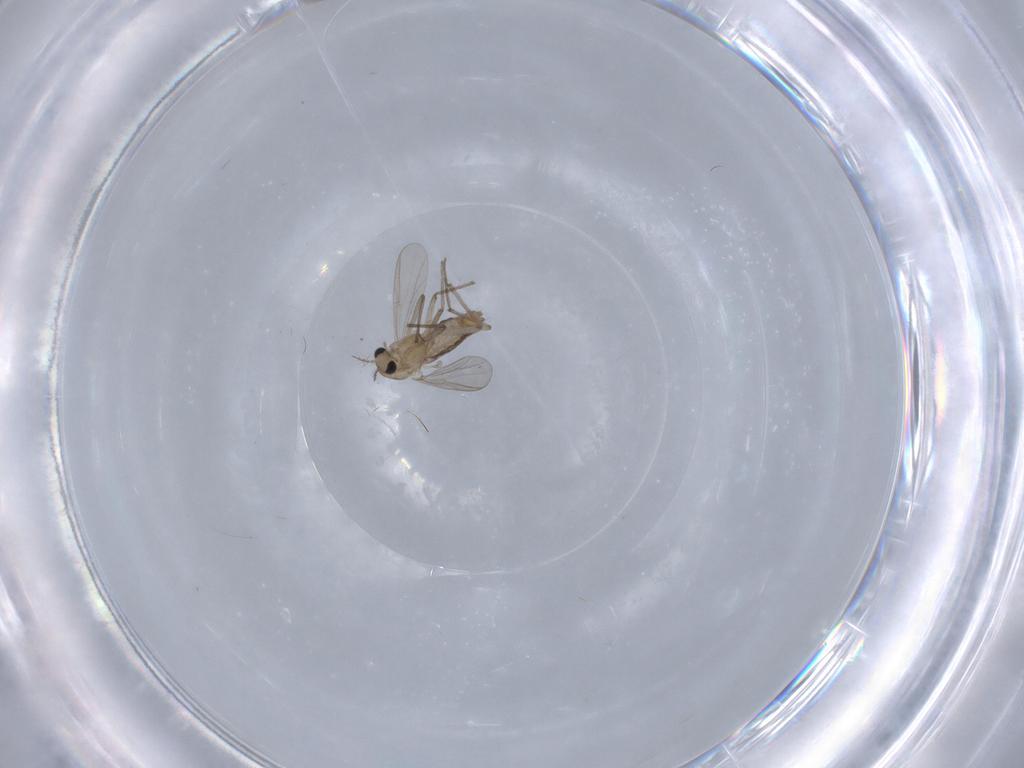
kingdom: Animalia
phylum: Arthropoda
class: Insecta
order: Diptera
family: Chironomidae
